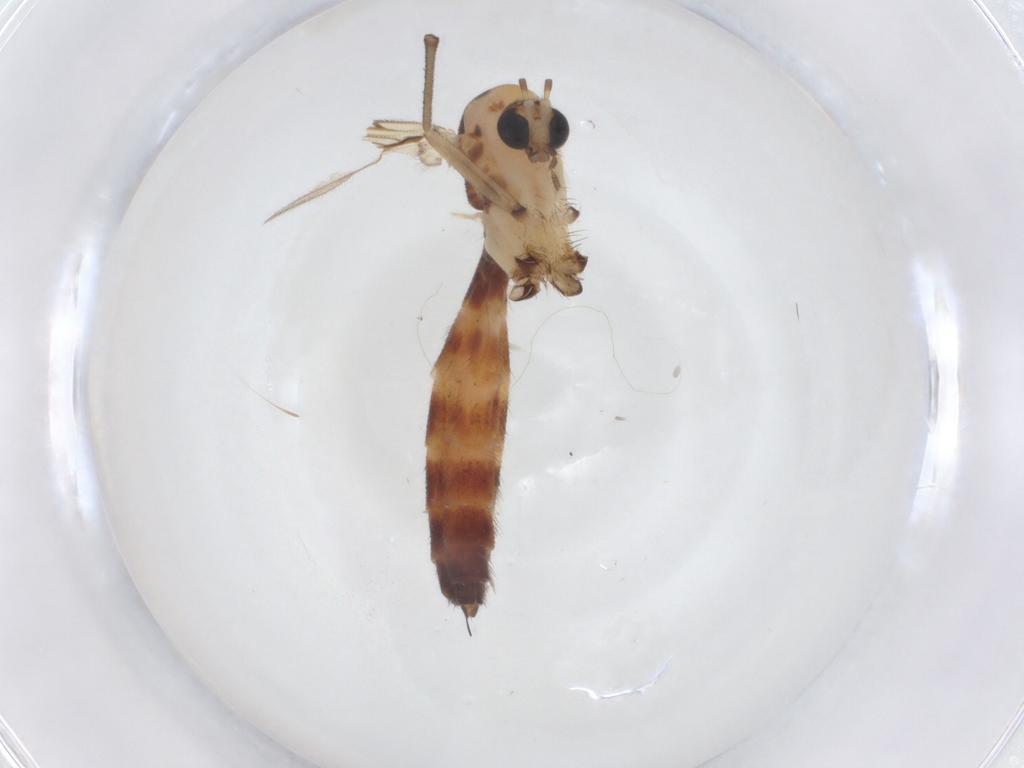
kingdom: Animalia
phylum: Arthropoda
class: Insecta
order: Diptera
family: Mycetophilidae
